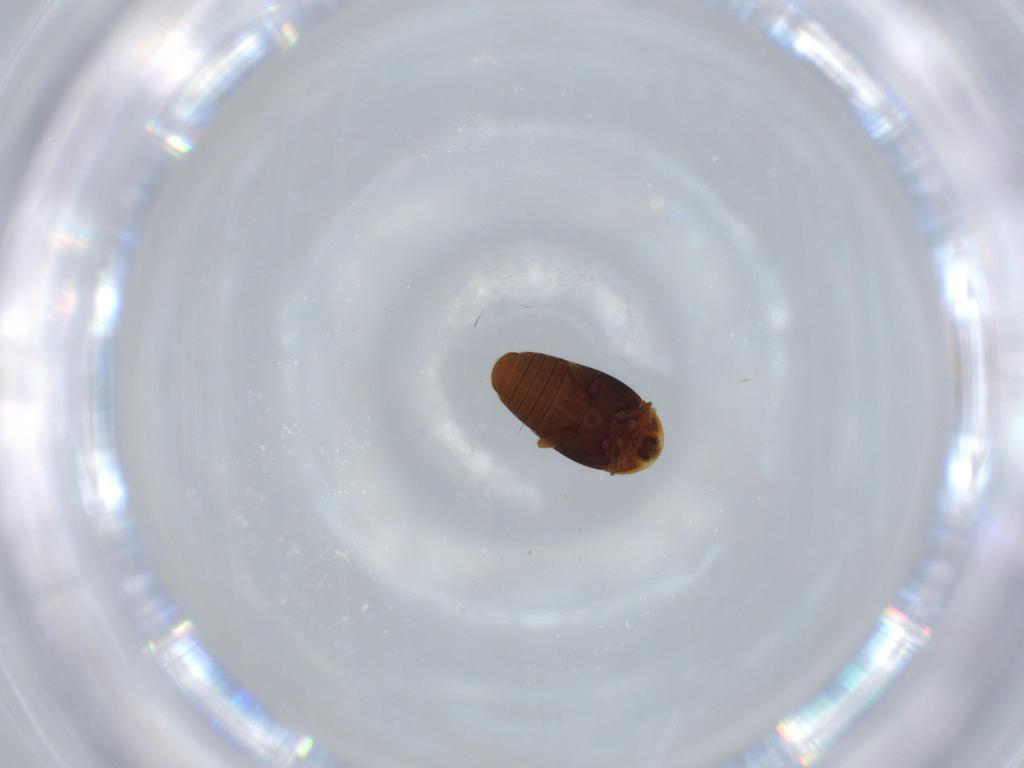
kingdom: Animalia
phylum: Arthropoda
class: Insecta
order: Coleoptera
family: Corylophidae
